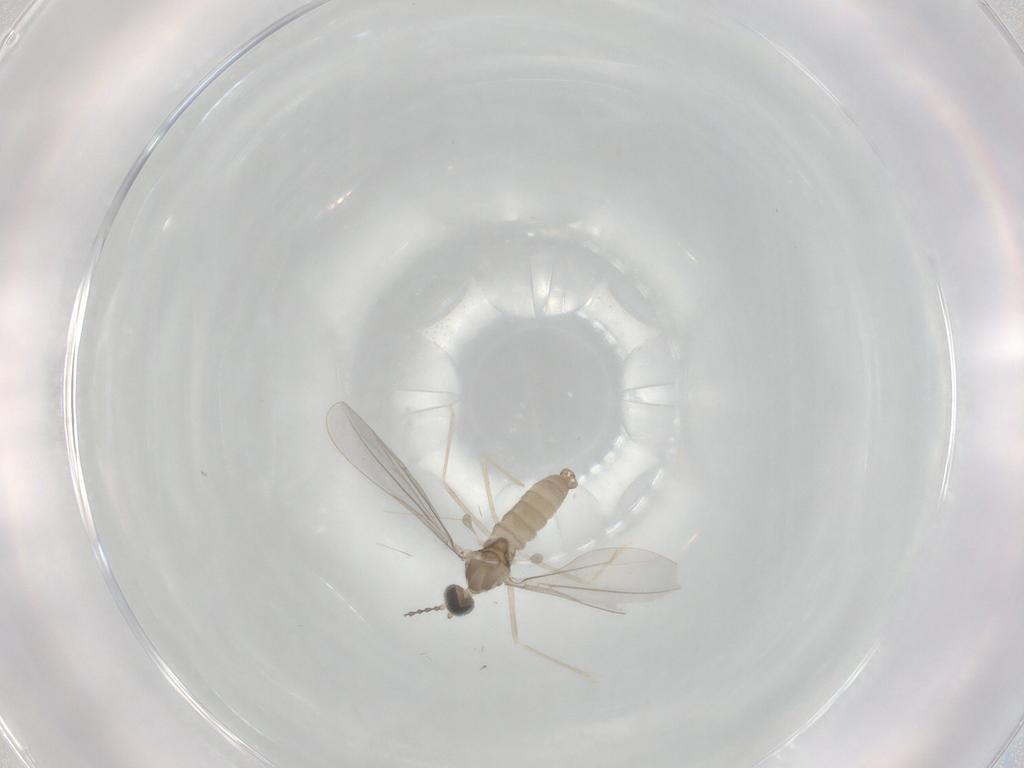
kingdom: Animalia
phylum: Arthropoda
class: Insecta
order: Diptera
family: Cecidomyiidae
